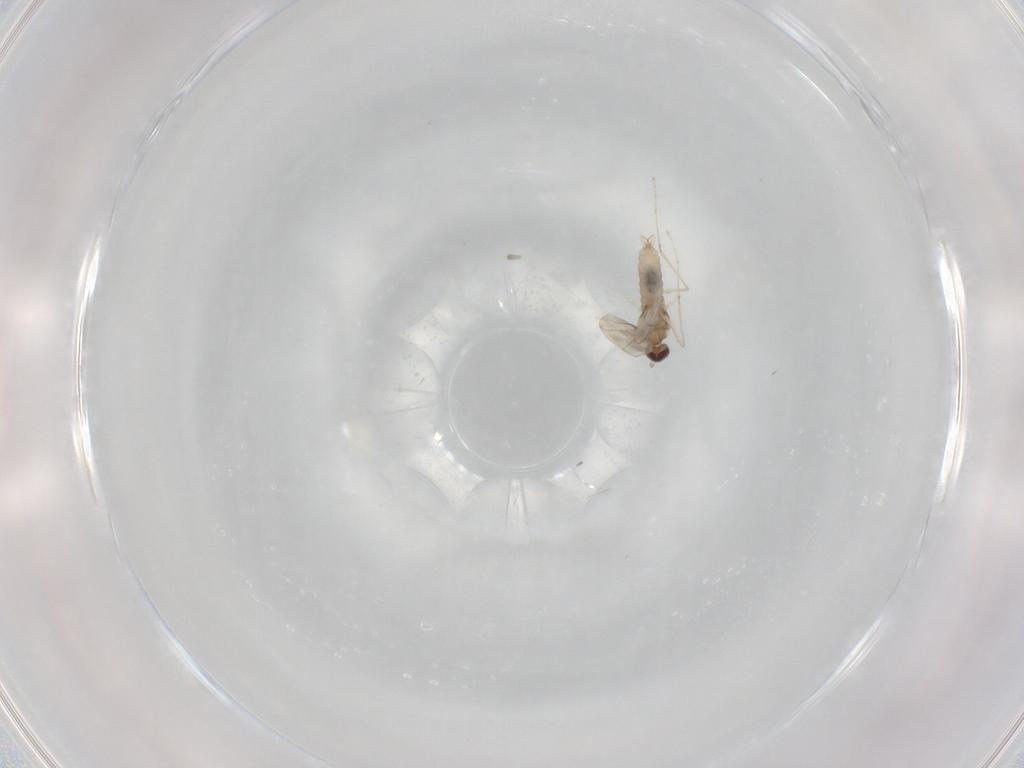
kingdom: Animalia
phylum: Arthropoda
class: Insecta
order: Diptera
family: Cecidomyiidae
